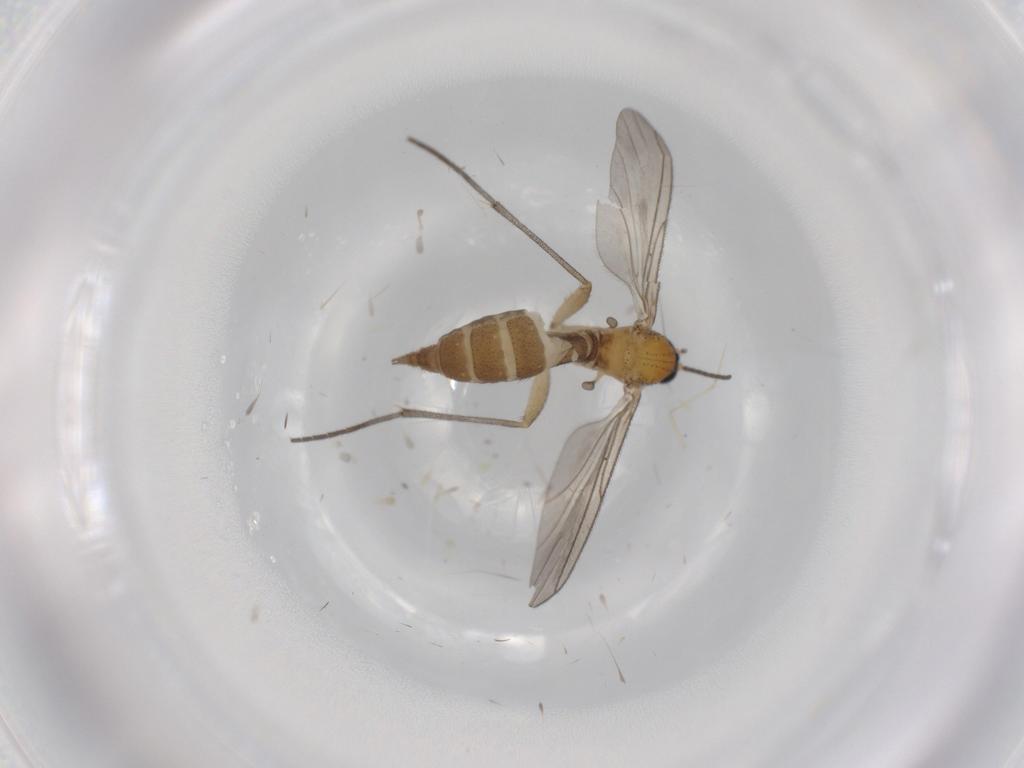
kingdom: Animalia
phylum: Arthropoda
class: Insecta
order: Diptera
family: Sciaridae
